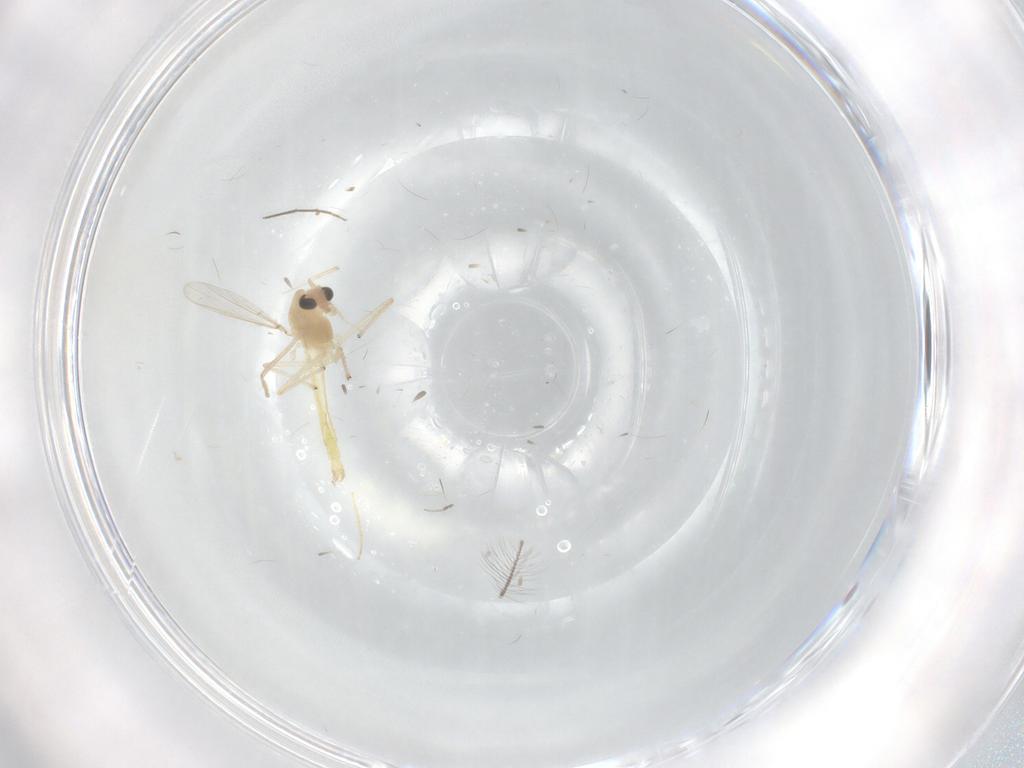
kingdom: Animalia
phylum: Arthropoda
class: Insecta
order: Diptera
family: Chironomidae
